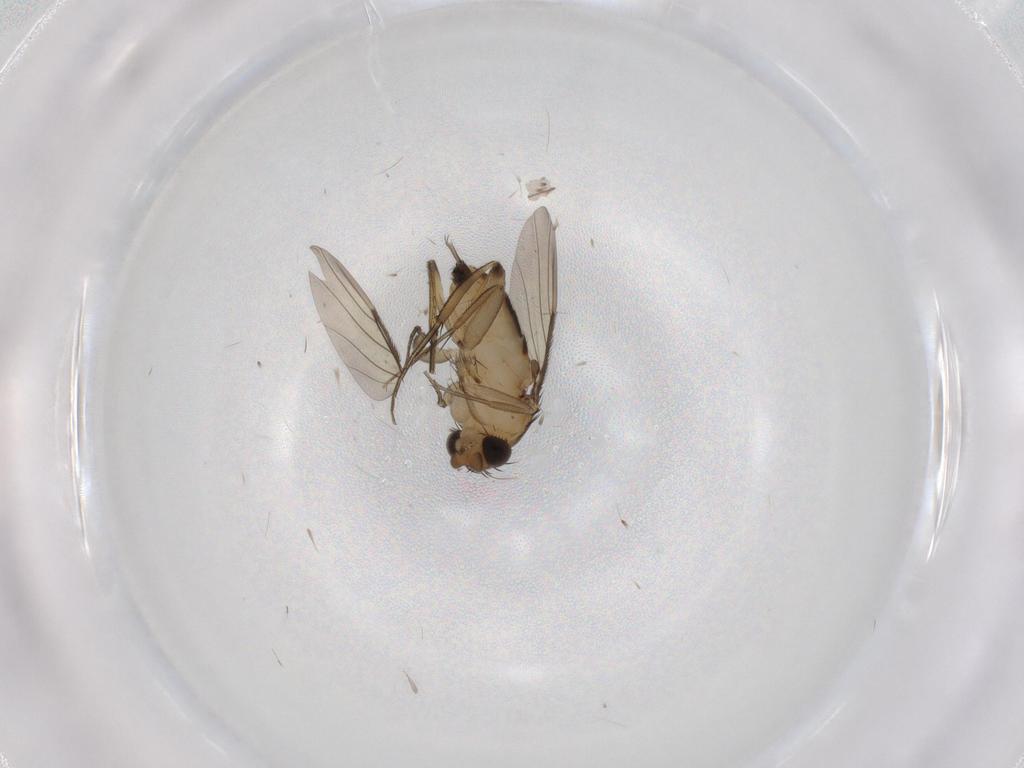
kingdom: Animalia
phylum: Arthropoda
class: Insecta
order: Diptera
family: Phoridae
